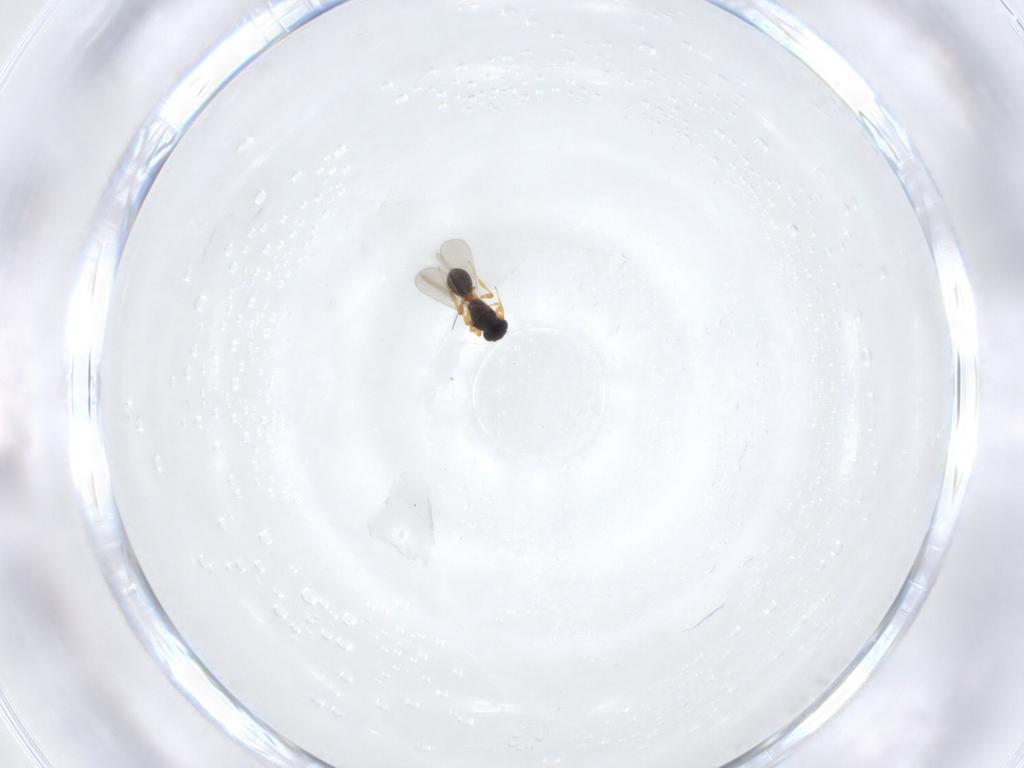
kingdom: Animalia
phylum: Arthropoda
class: Insecta
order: Hymenoptera
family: Platygastridae
